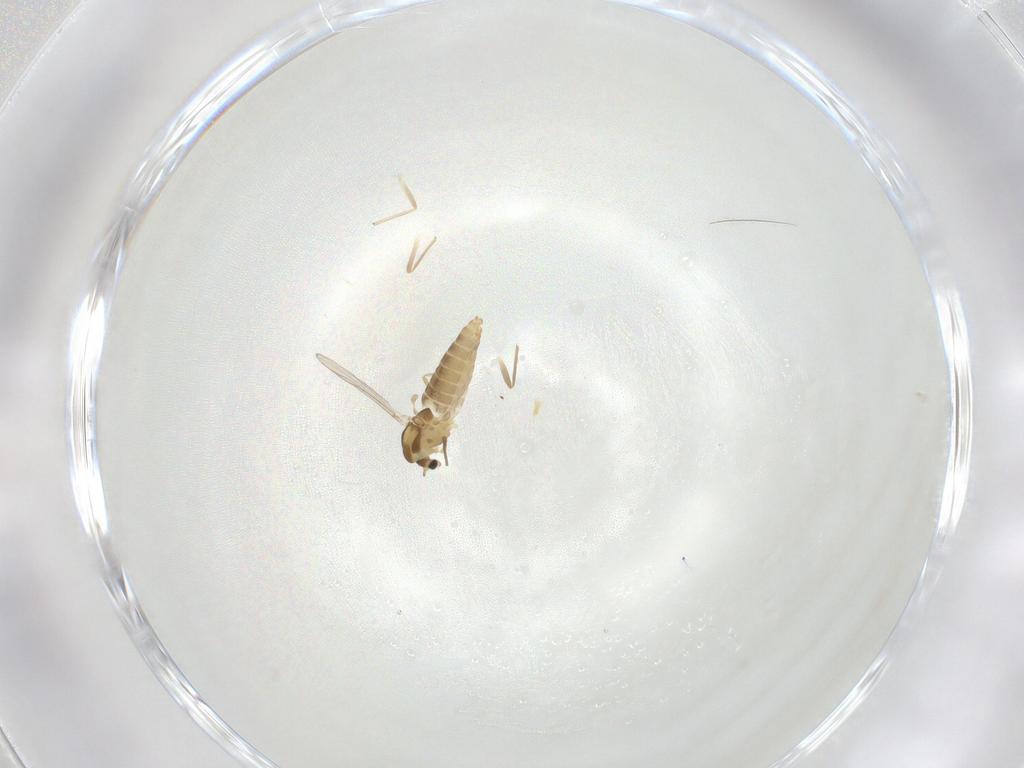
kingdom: Animalia
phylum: Arthropoda
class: Insecta
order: Diptera
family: Chironomidae
